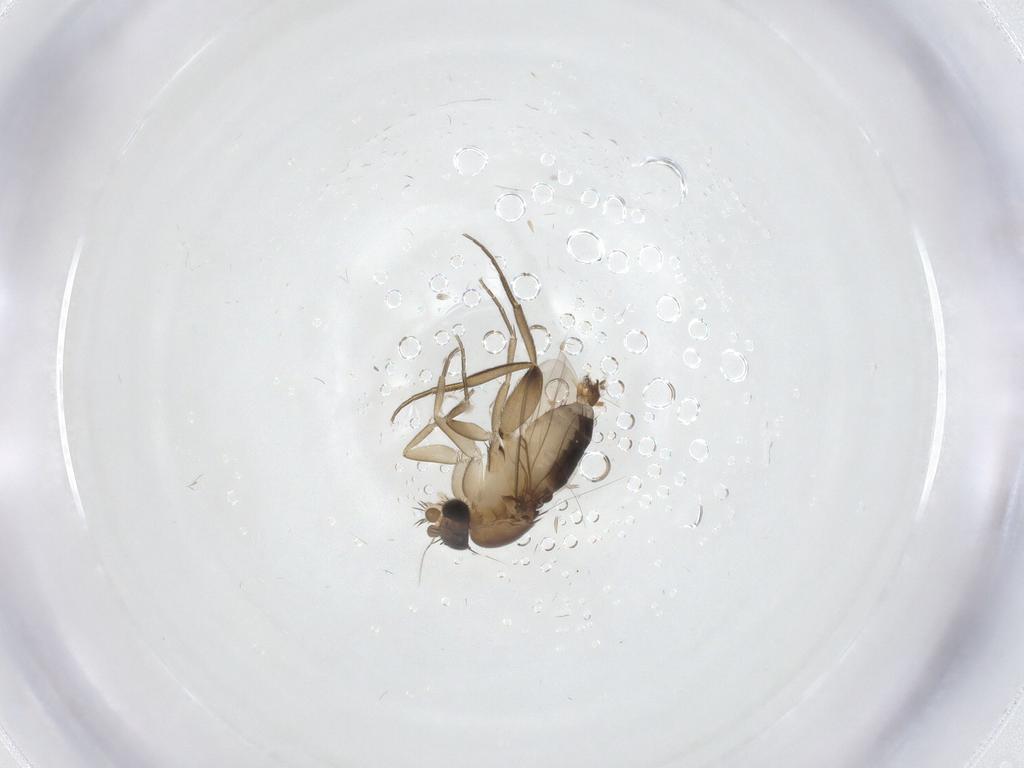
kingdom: Animalia
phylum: Arthropoda
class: Insecta
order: Diptera
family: Phoridae
